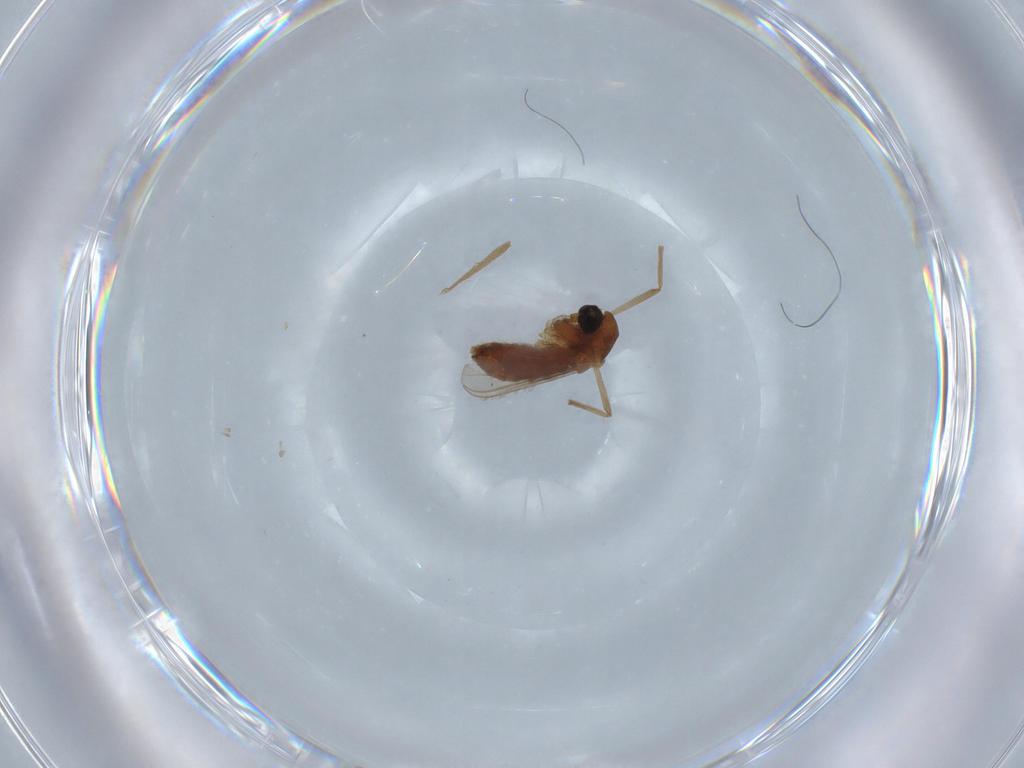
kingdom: Animalia
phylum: Arthropoda
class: Insecta
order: Diptera
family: Chironomidae
